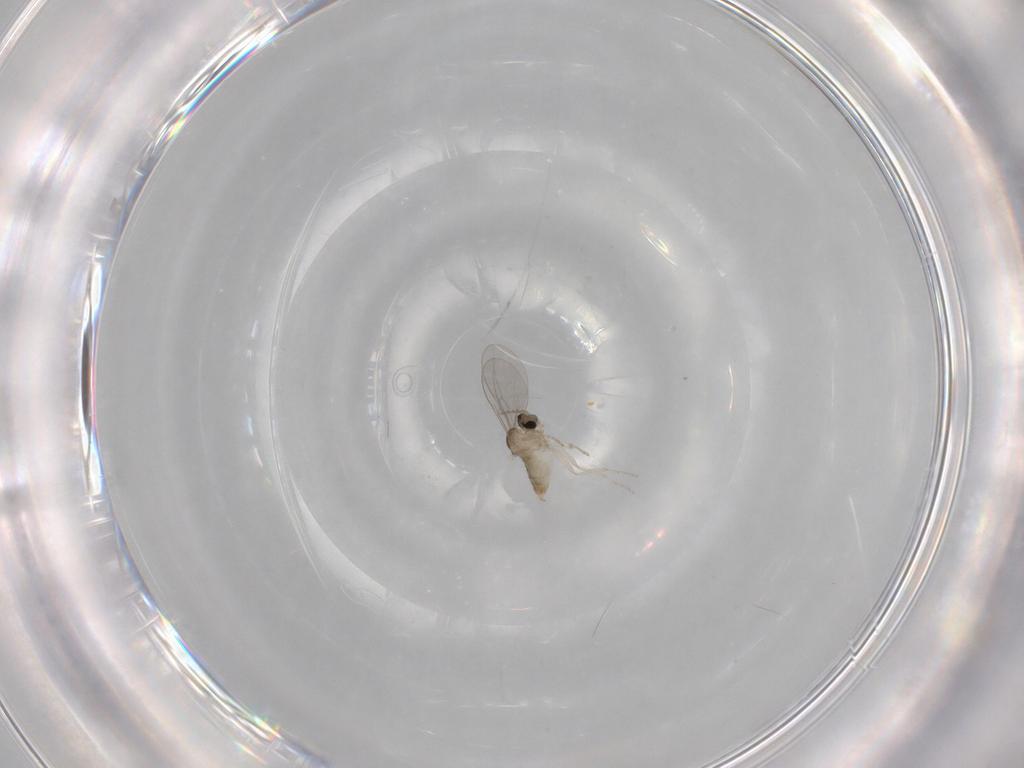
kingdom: Animalia
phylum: Arthropoda
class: Insecta
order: Diptera
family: Cecidomyiidae
